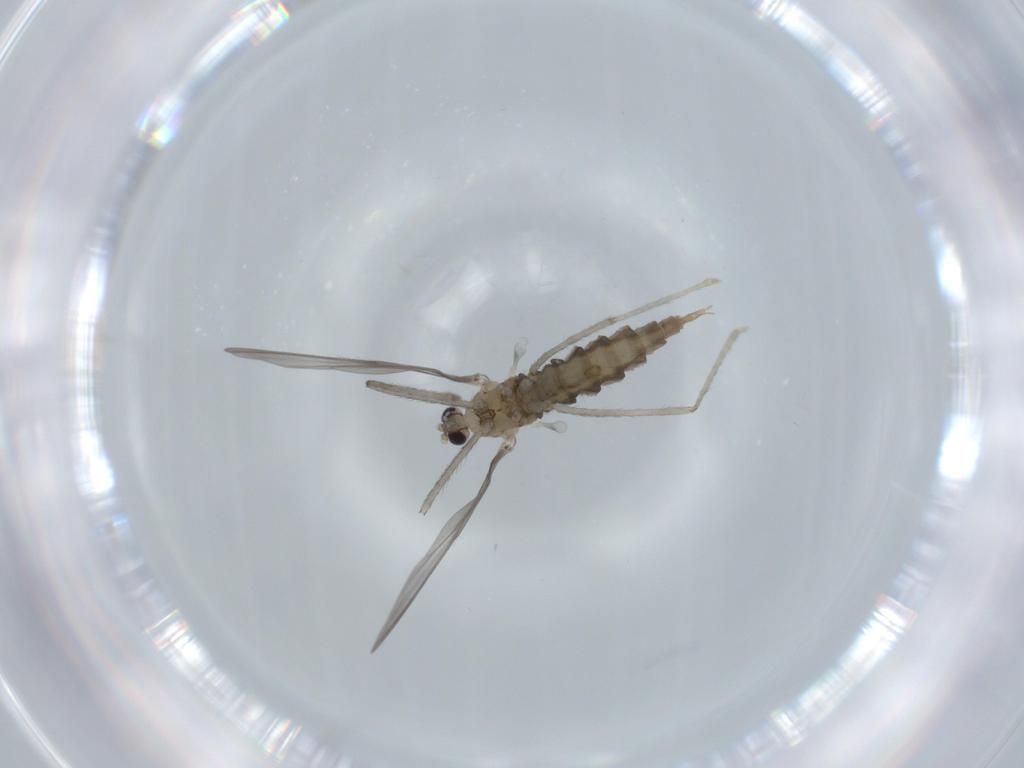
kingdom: Animalia
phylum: Arthropoda
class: Insecta
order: Diptera
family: Cecidomyiidae
